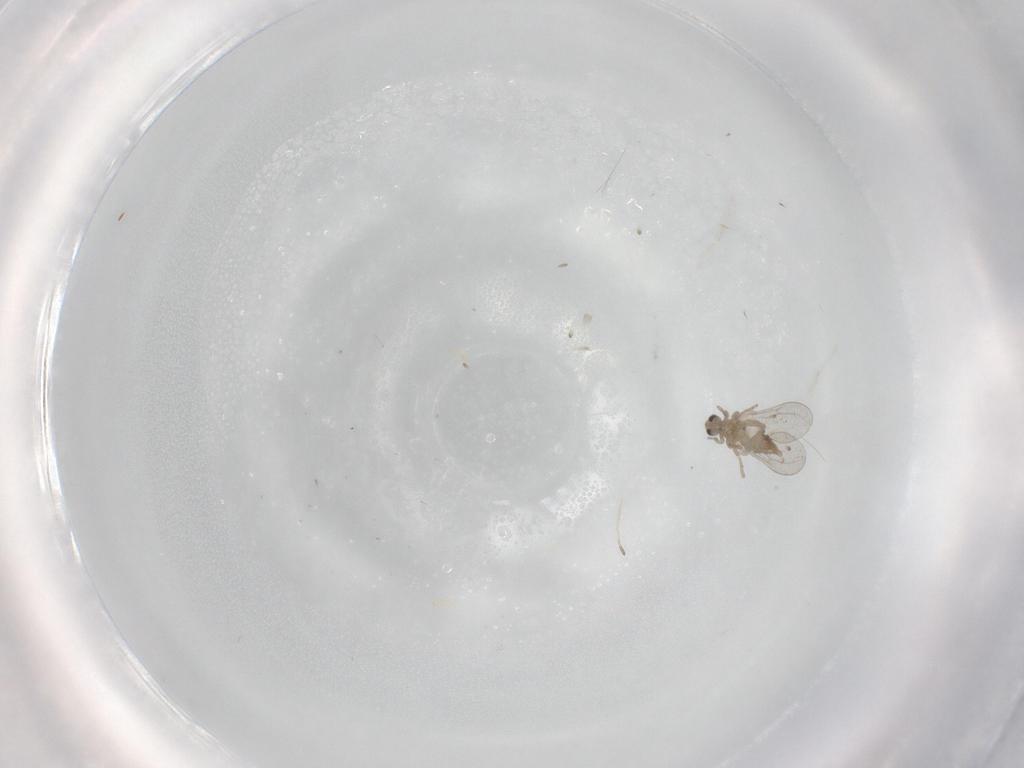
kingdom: Animalia
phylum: Arthropoda
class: Insecta
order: Diptera
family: Cecidomyiidae
